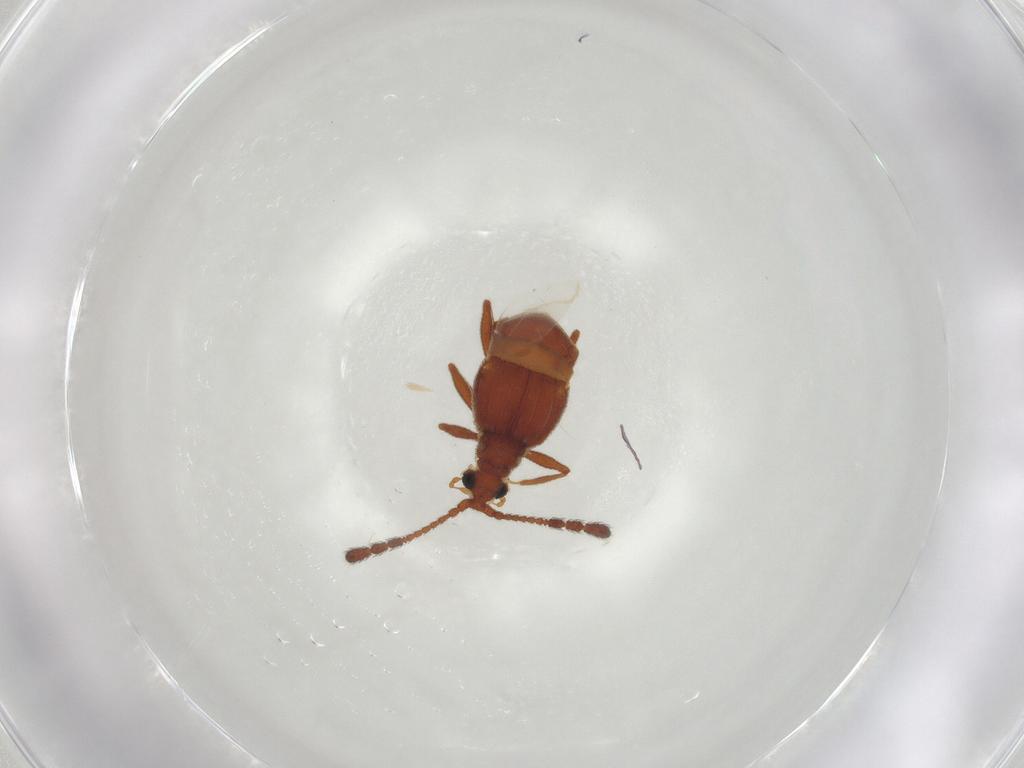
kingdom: Animalia
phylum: Arthropoda
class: Insecta
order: Coleoptera
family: Staphylinidae
